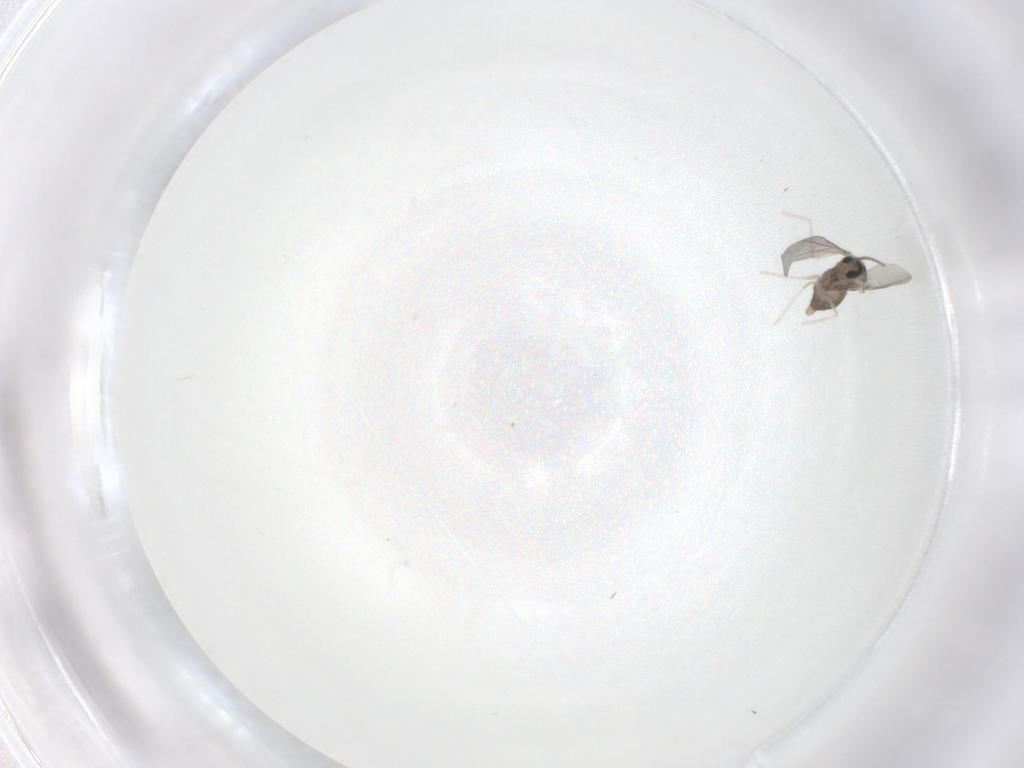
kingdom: Animalia
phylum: Arthropoda
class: Insecta
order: Diptera
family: Cecidomyiidae
